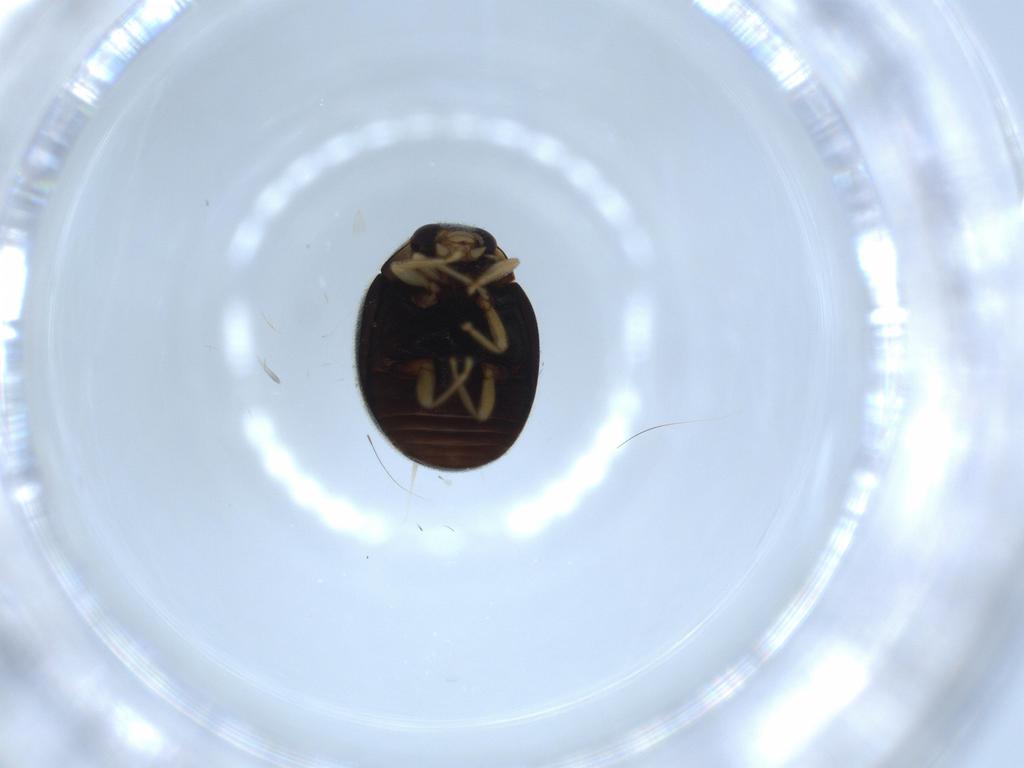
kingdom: Animalia
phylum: Arthropoda
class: Insecta
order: Coleoptera
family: Coccinellidae
